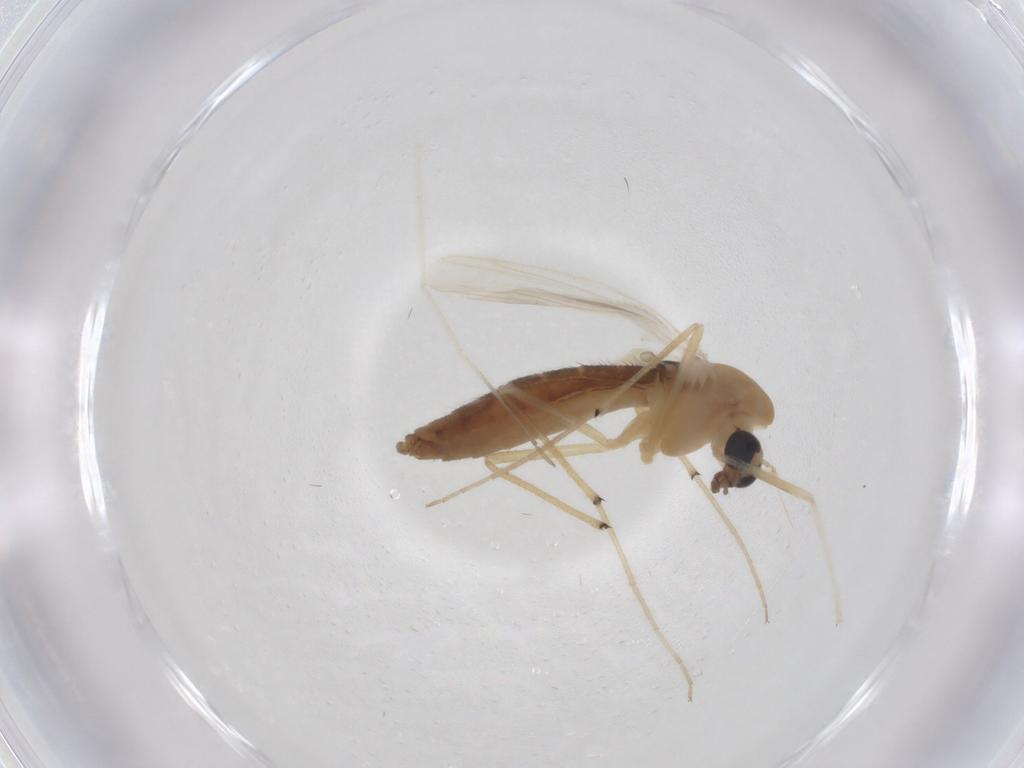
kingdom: Animalia
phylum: Arthropoda
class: Insecta
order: Diptera
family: Chironomidae
